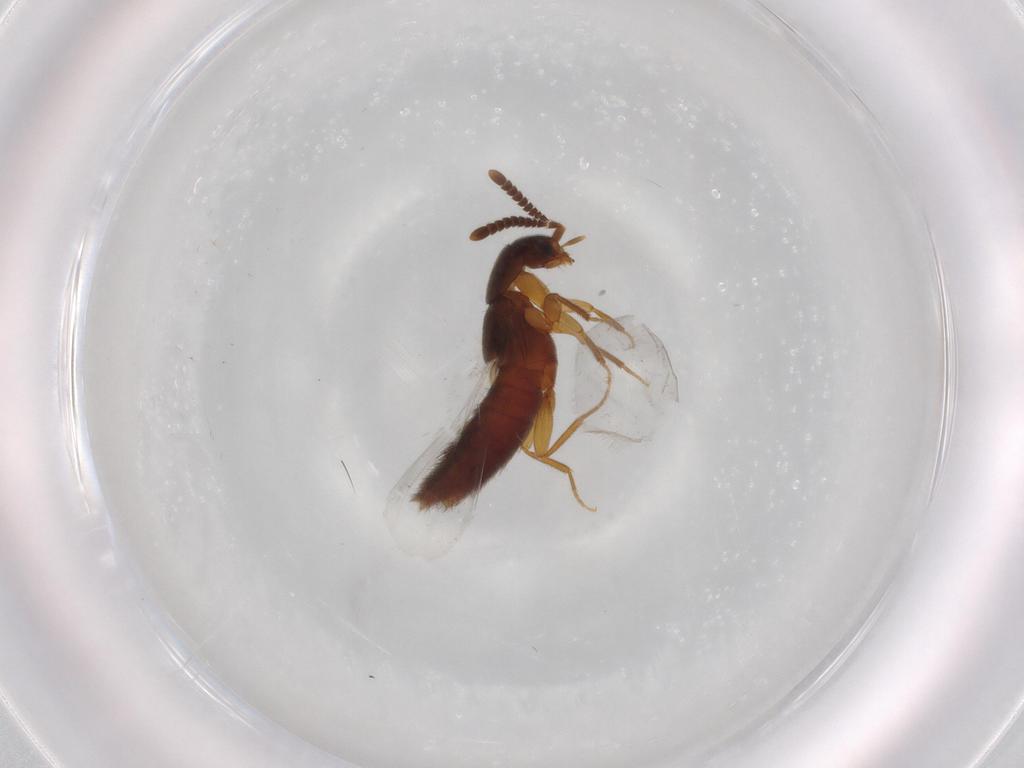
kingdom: Animalia
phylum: Arthropoda
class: Insecta
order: Coleoptera
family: Staphylinidae
